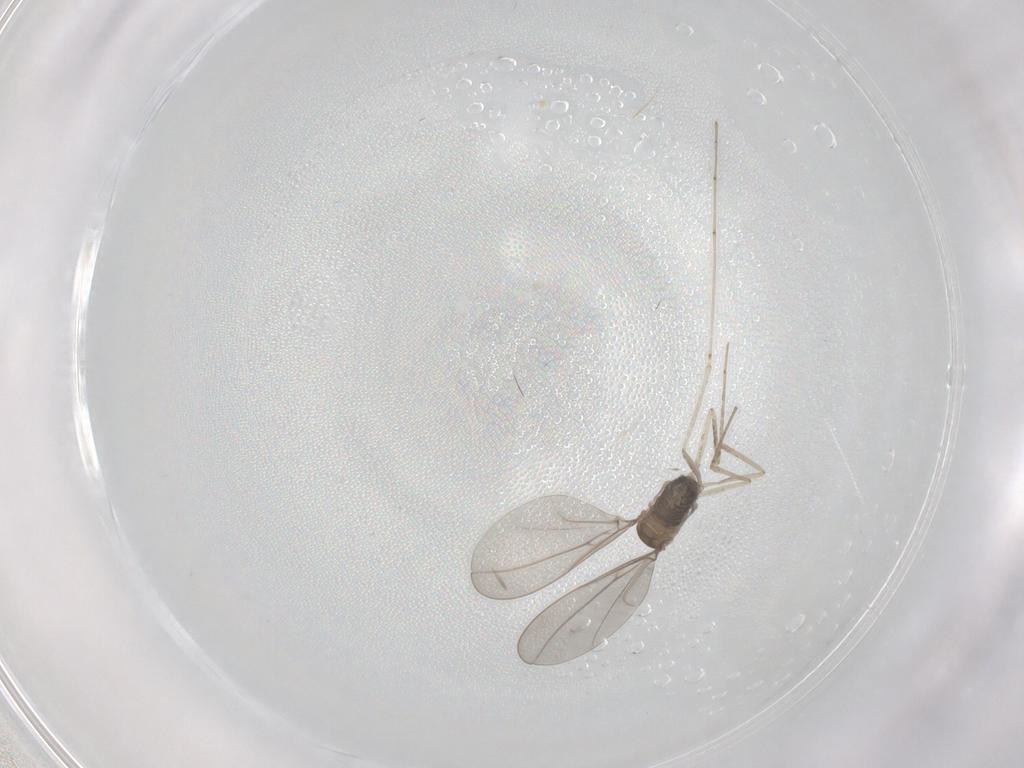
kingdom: Animalia
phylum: Arthropoda
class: Insecta
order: Diptera
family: Cecidomyiidae
